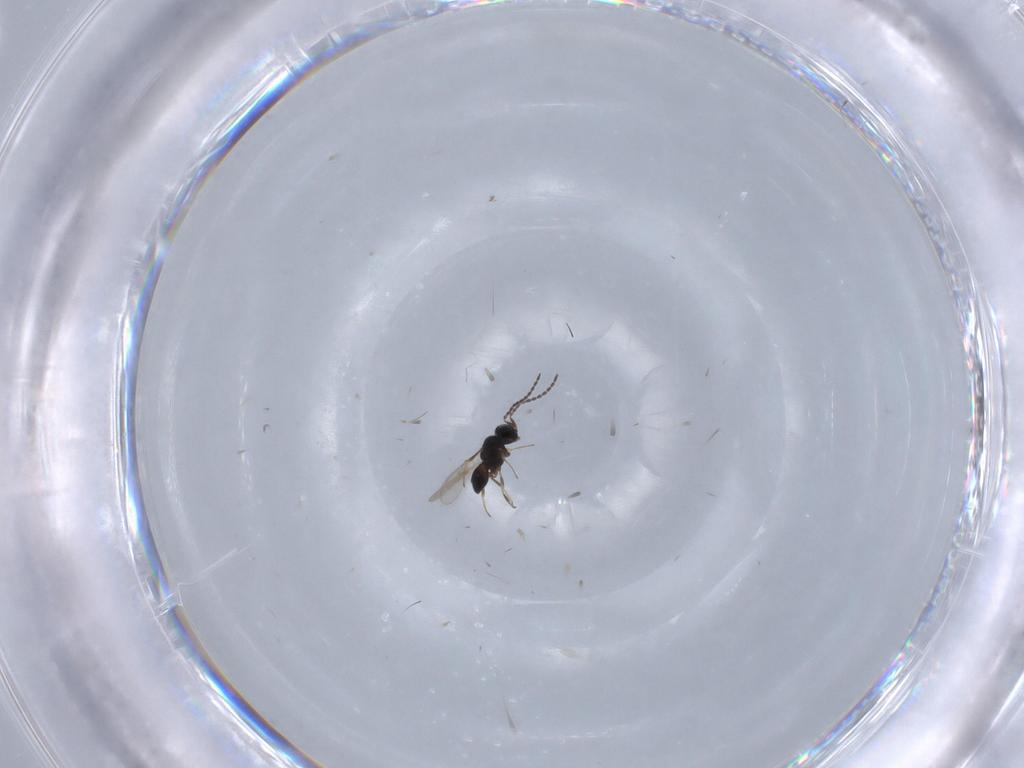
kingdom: Animalia
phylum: Arthropoda
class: Insecta
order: Hymenoptera
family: Scelionidae
